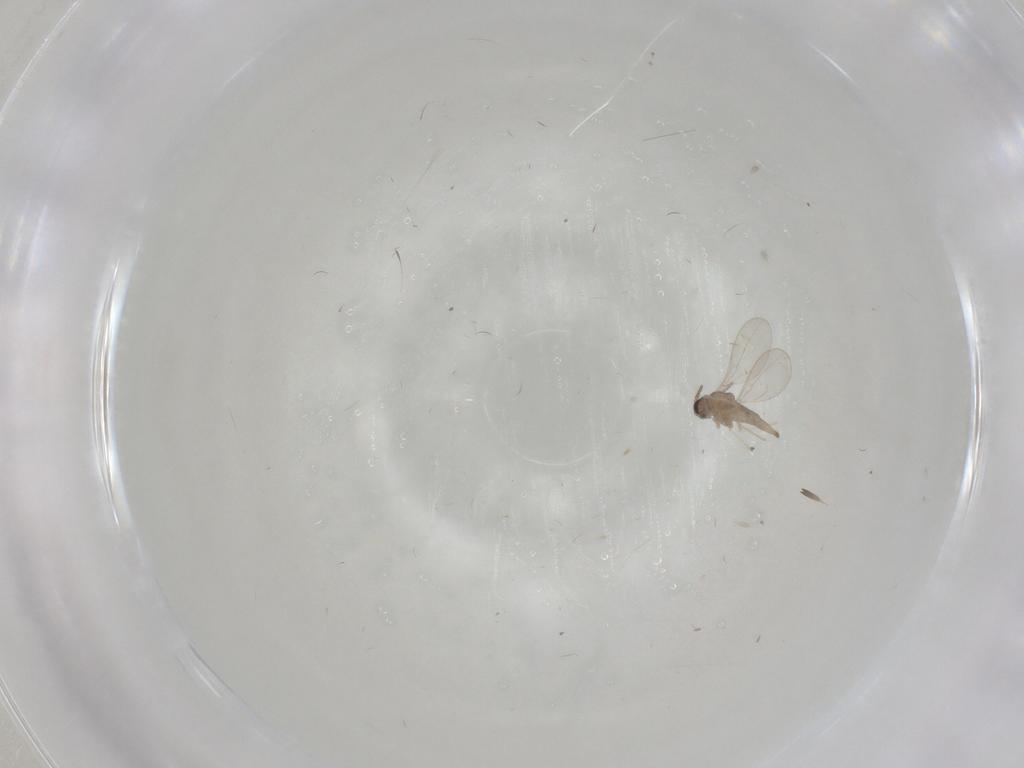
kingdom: Animalia
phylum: Arthropoda
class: Insecta
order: Diptera
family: Cecidomyiidae
